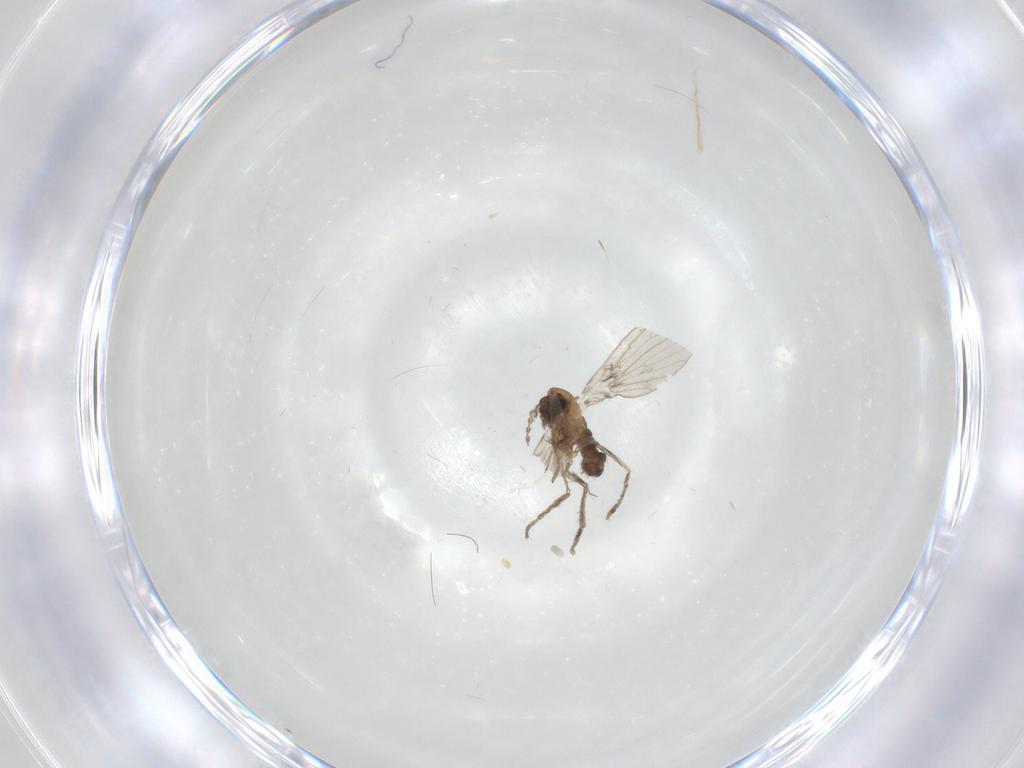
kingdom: Animalia
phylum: Arthropoda
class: Insecta
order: Diptera
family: Psychodidae
